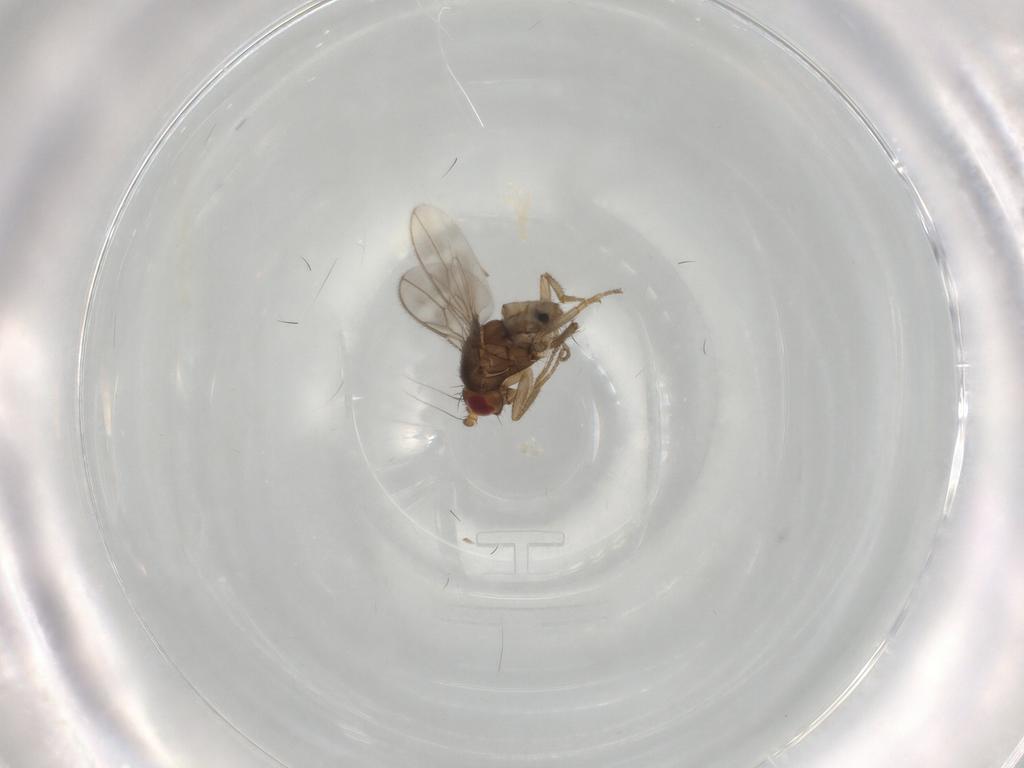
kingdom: Animalia
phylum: Arthropoda
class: Insecta
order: Diptera
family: Sphaeroceridae
